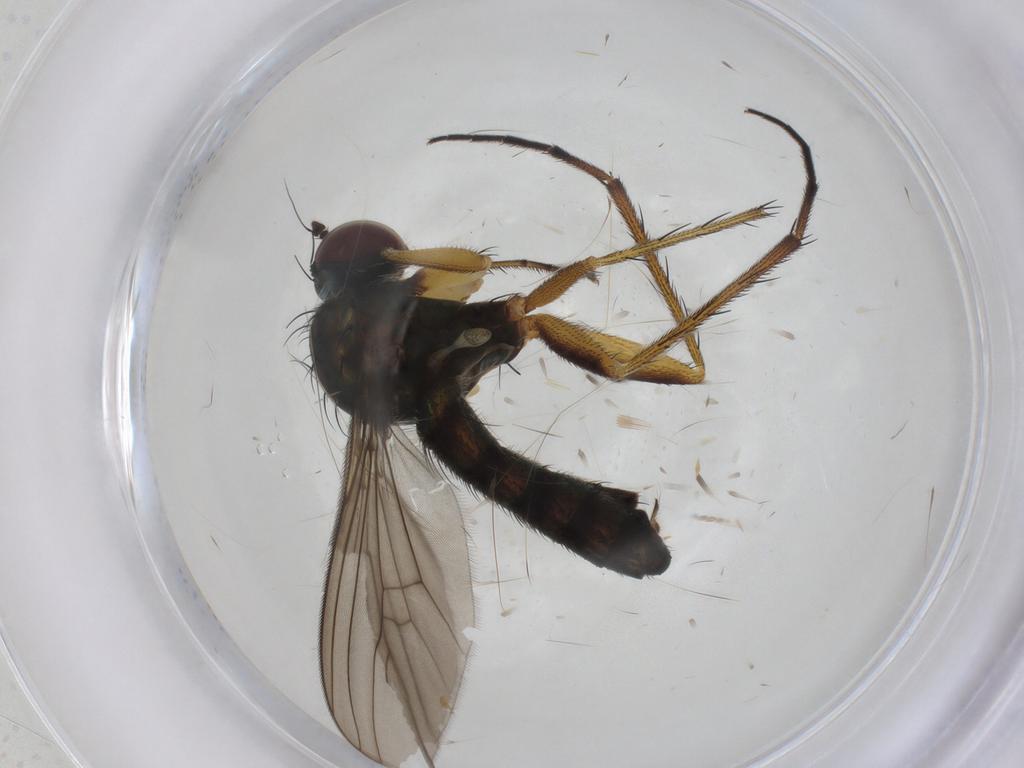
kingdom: Animalia
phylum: Arthropoda
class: Insecta
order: Diptera
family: Dolichopodidae
